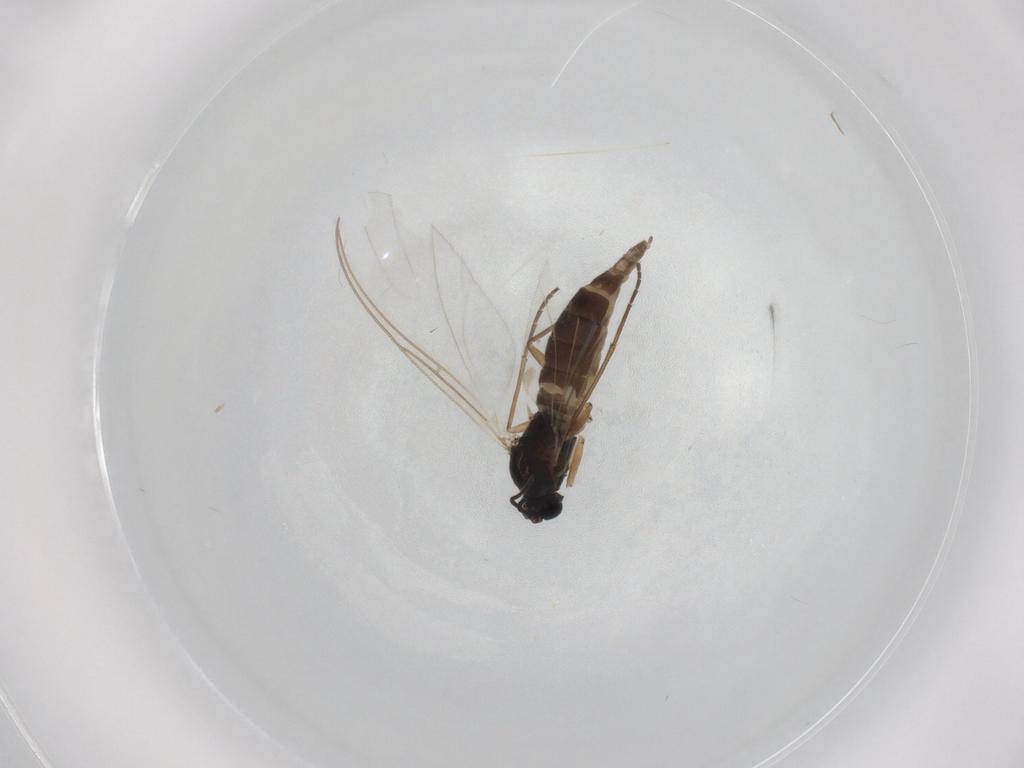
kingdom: Animalia
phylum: Arthropoda
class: Insecta
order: Diptera
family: Sciaridae
